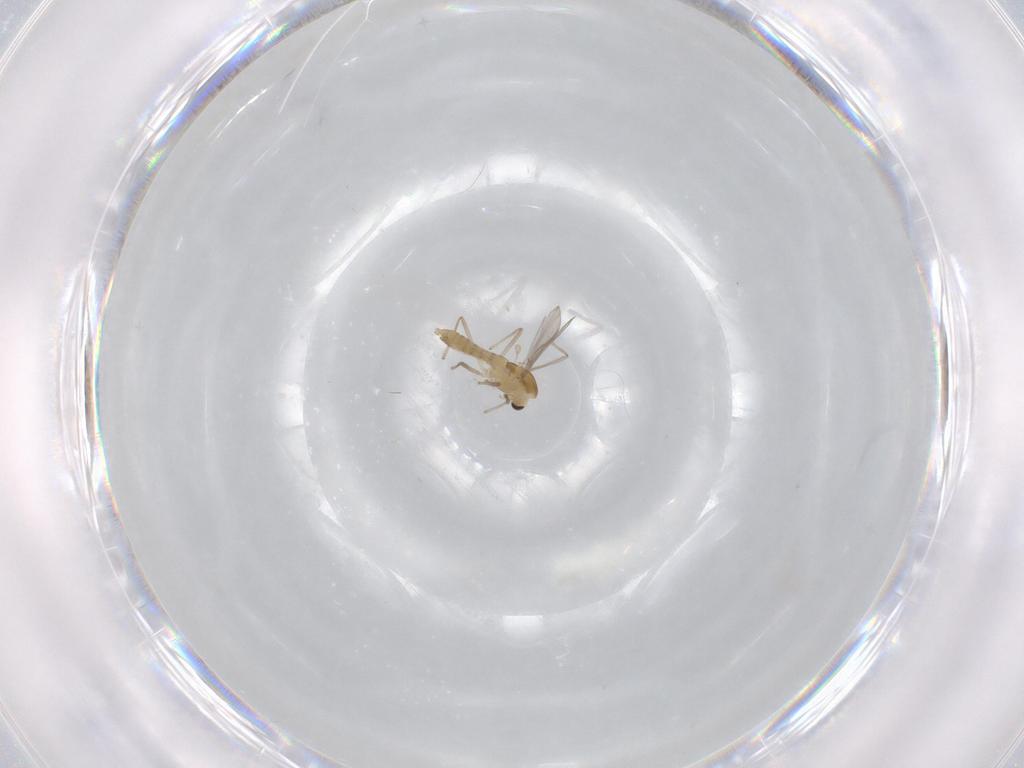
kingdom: Animalia
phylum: Arthropoda
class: Insecta
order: Diptera
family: Chironomidae
